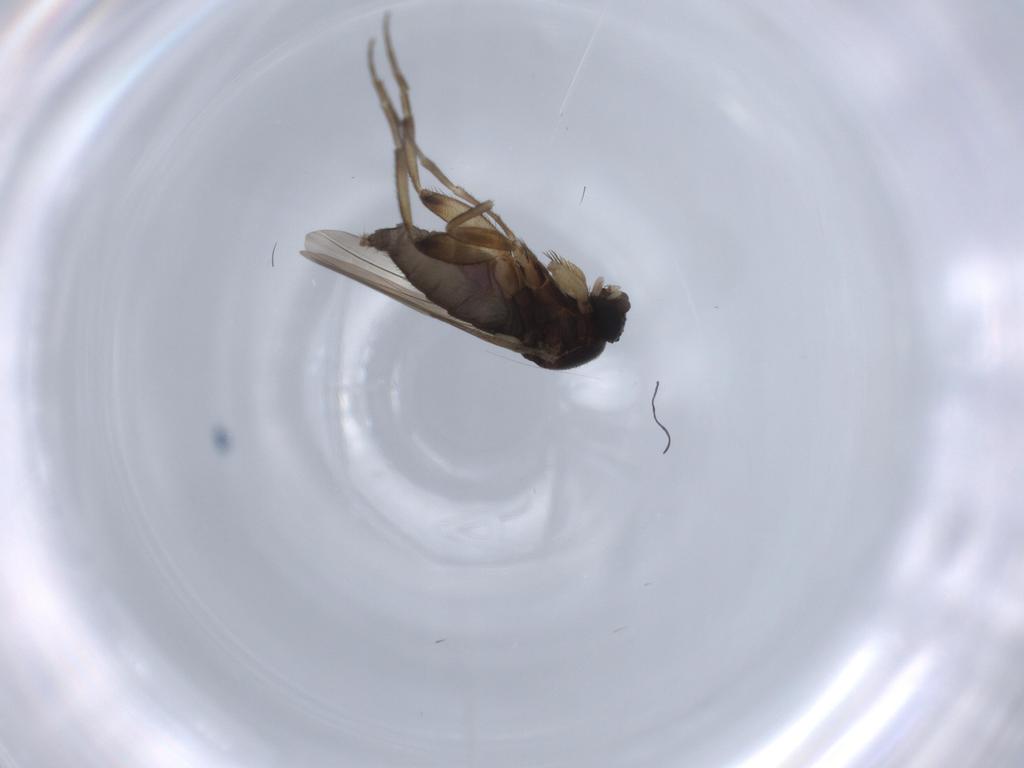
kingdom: Animalia
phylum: Arthropoda
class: Insecta
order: Diptera
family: Phoridae
